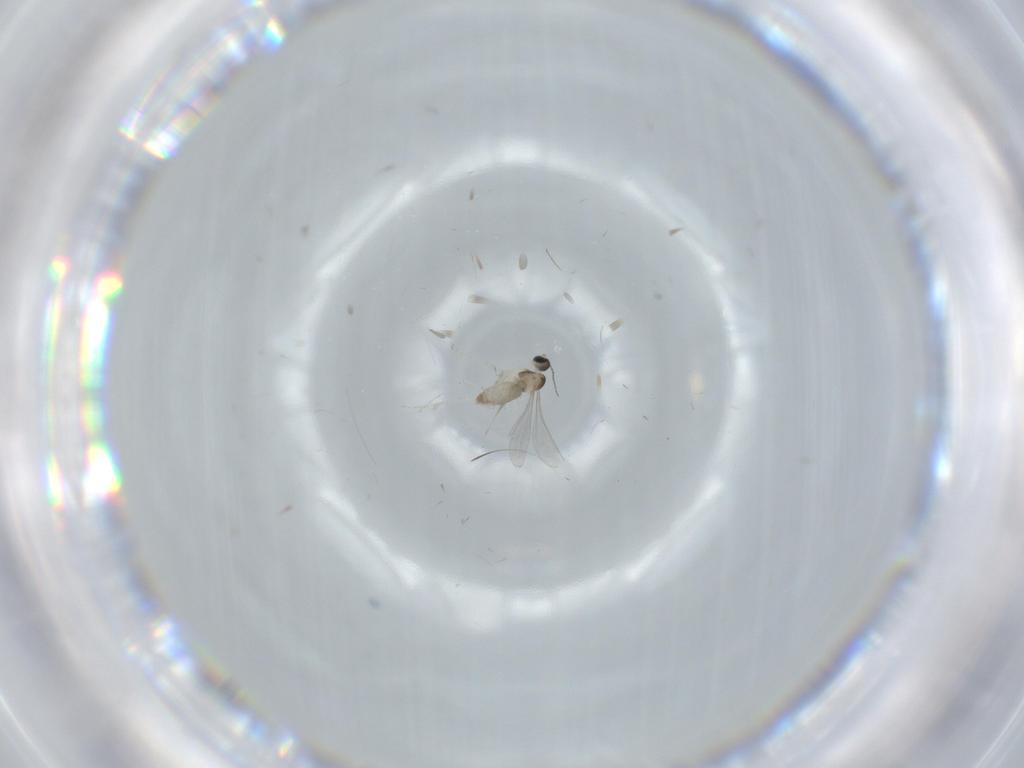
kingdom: Animalia
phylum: Arthropoda
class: Insecta
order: Diptera
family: Dolichopodidae
